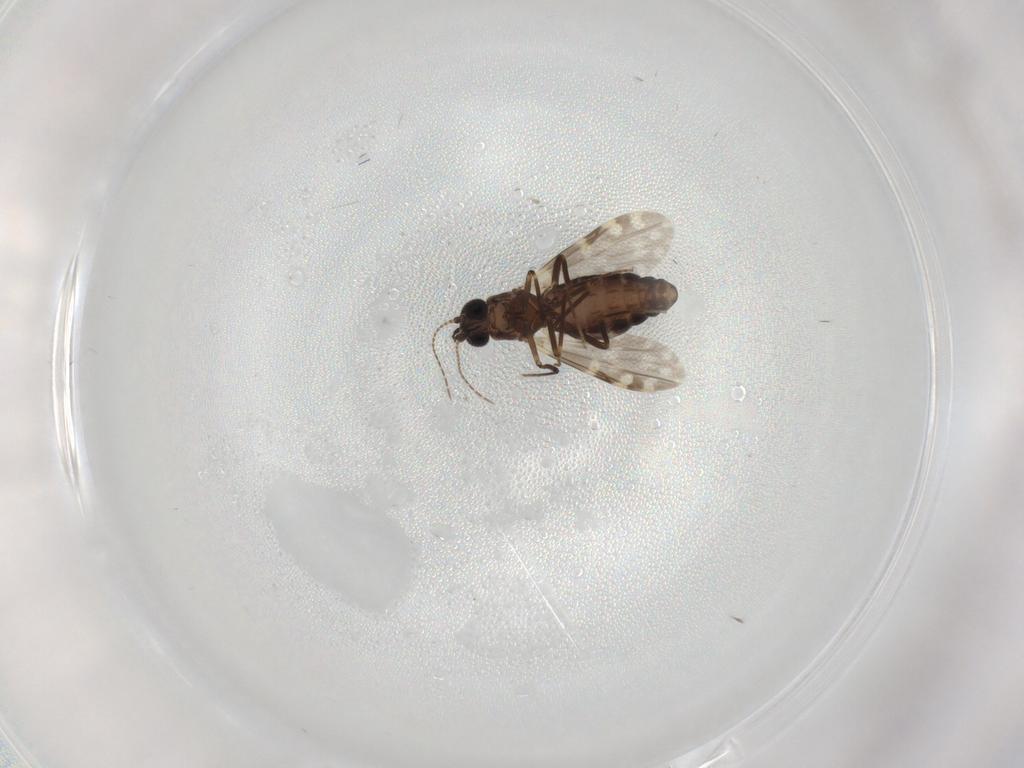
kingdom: Animalia
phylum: Arthropoda
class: Insecta
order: Diptera
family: Ceratopogonidae
